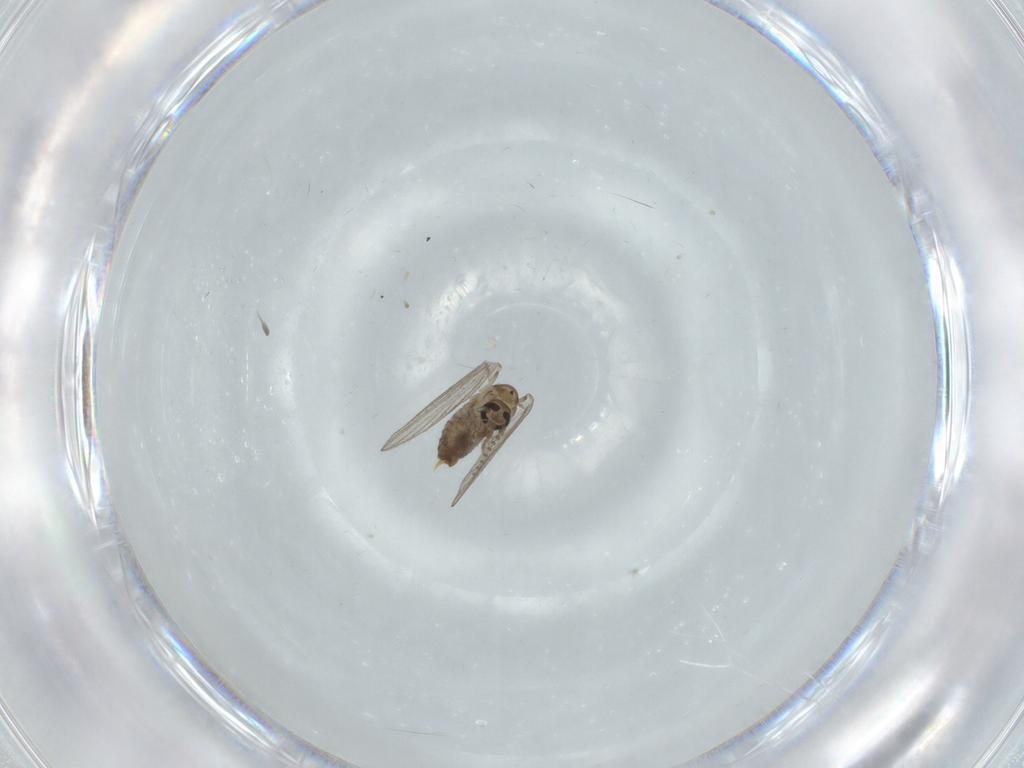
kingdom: Animalia
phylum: Arthropoda
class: Insecta
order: Diptera
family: Psychodidae
